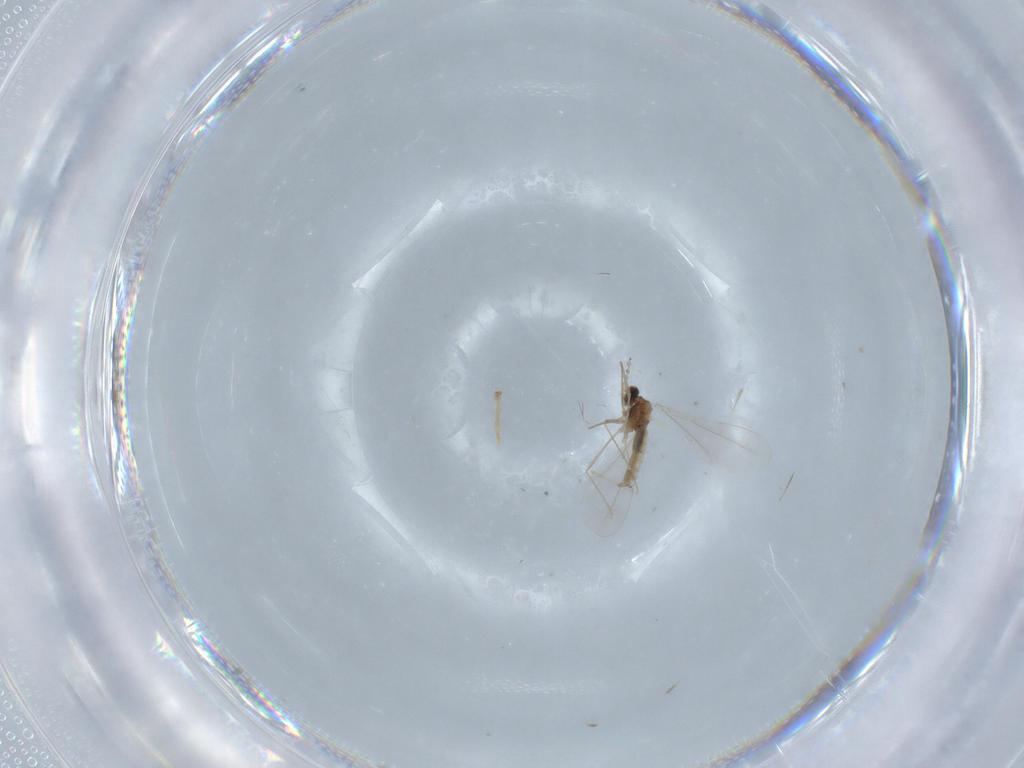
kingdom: Animalia
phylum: Arthropoda
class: Insecta
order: Diptera
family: Cecidomyiidae
